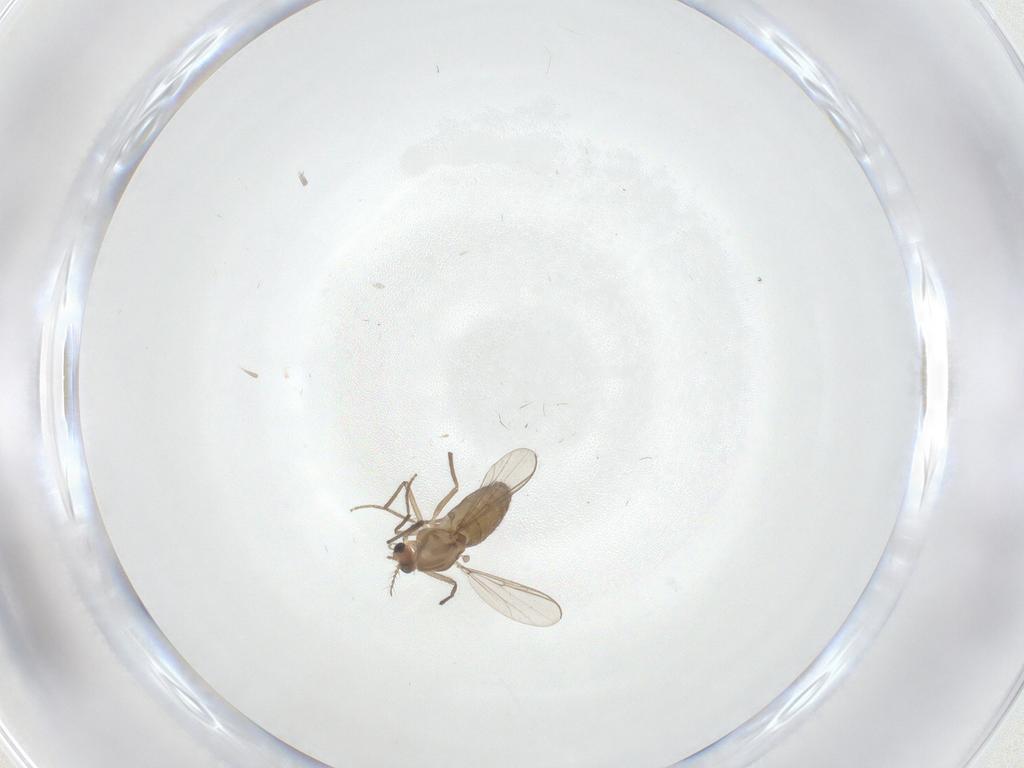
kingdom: Animalia
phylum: Arthropoda
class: Insecta
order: Diptera
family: Chironomidae
